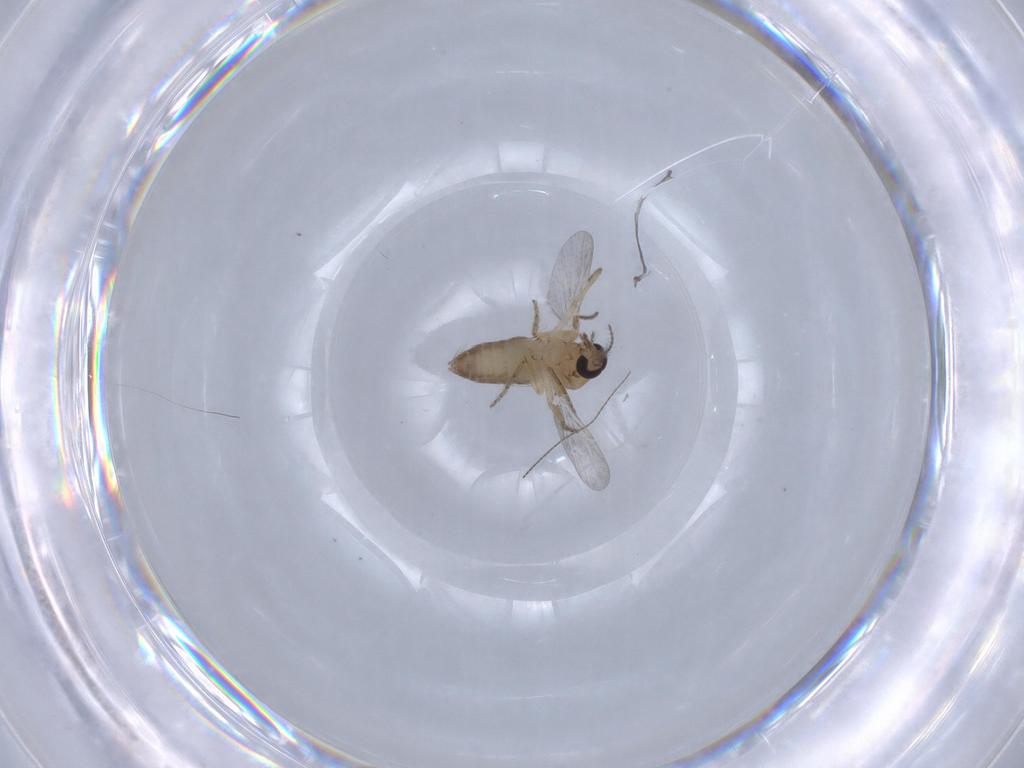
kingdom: Animalia
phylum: Arthropoda
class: Insecta
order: Diptera
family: Ceratopogonidae
